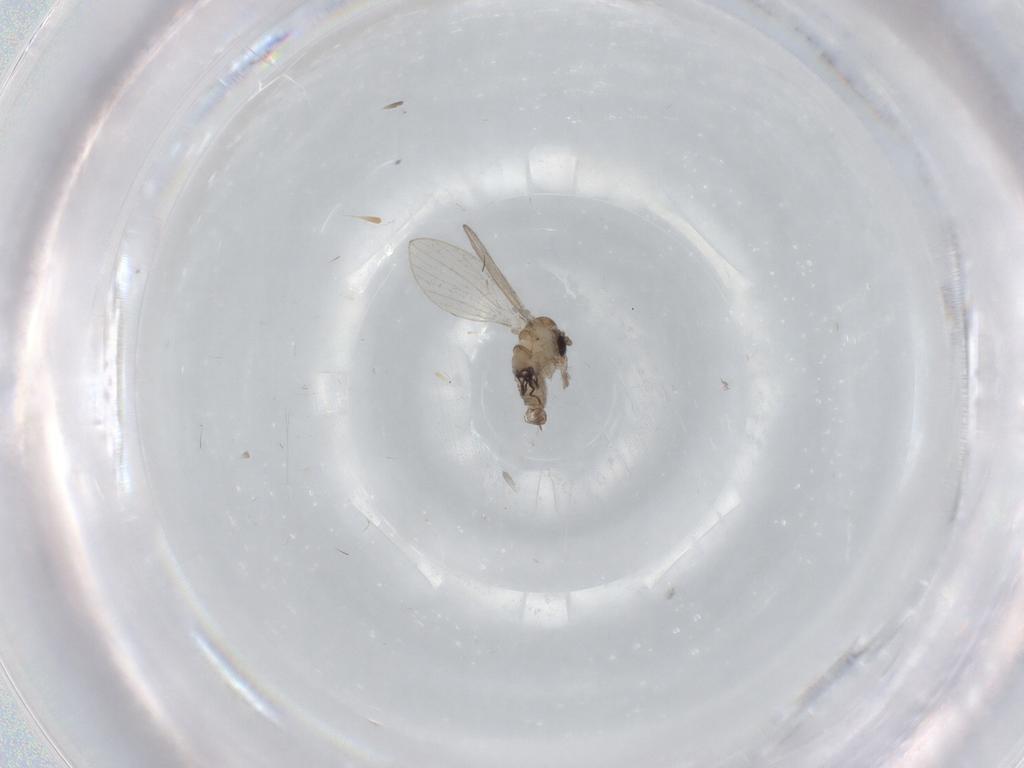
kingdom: Animalia
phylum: Arthropoda
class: Insecta
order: Diptera
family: Psychodidae
